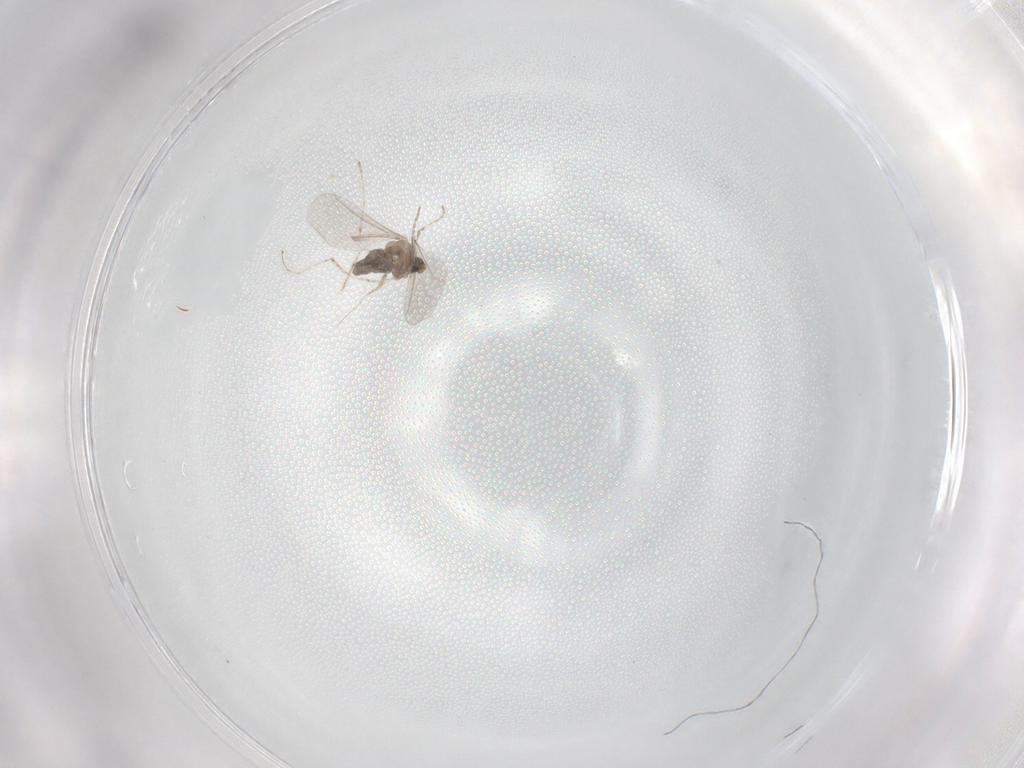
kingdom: Animalia
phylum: Arthropoda
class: Insecta
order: Diptera
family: Cecidomyiidae
